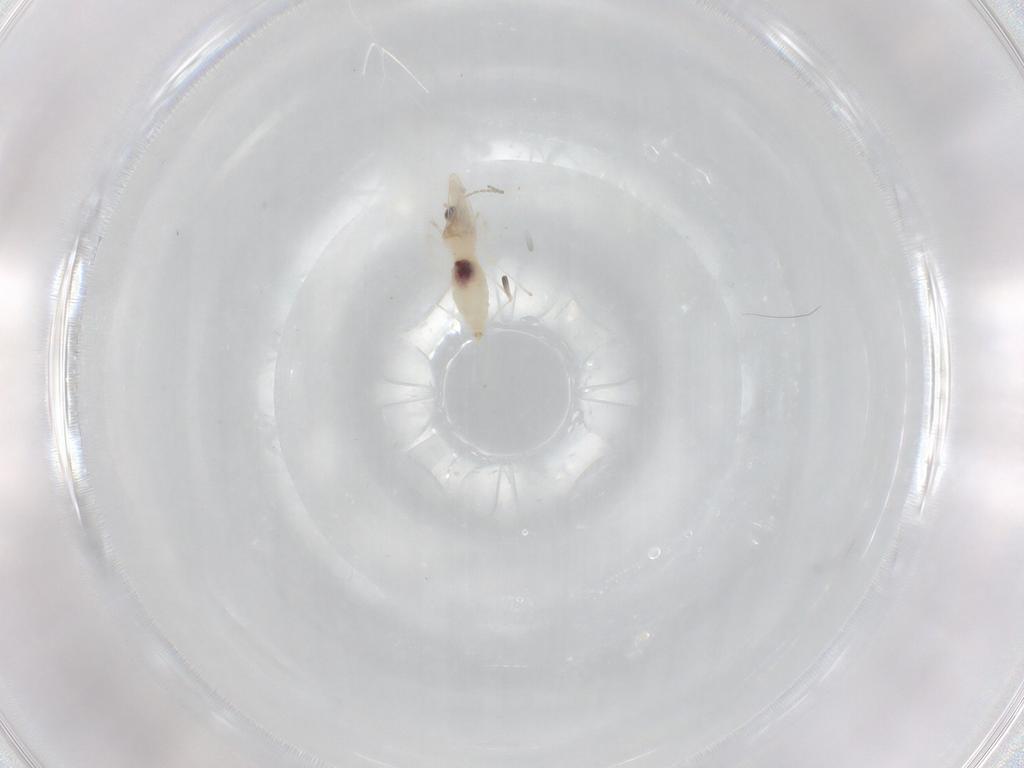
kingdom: Animalia
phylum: Arthropoda
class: Insecta
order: Diptera
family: Cecidomyiidae
